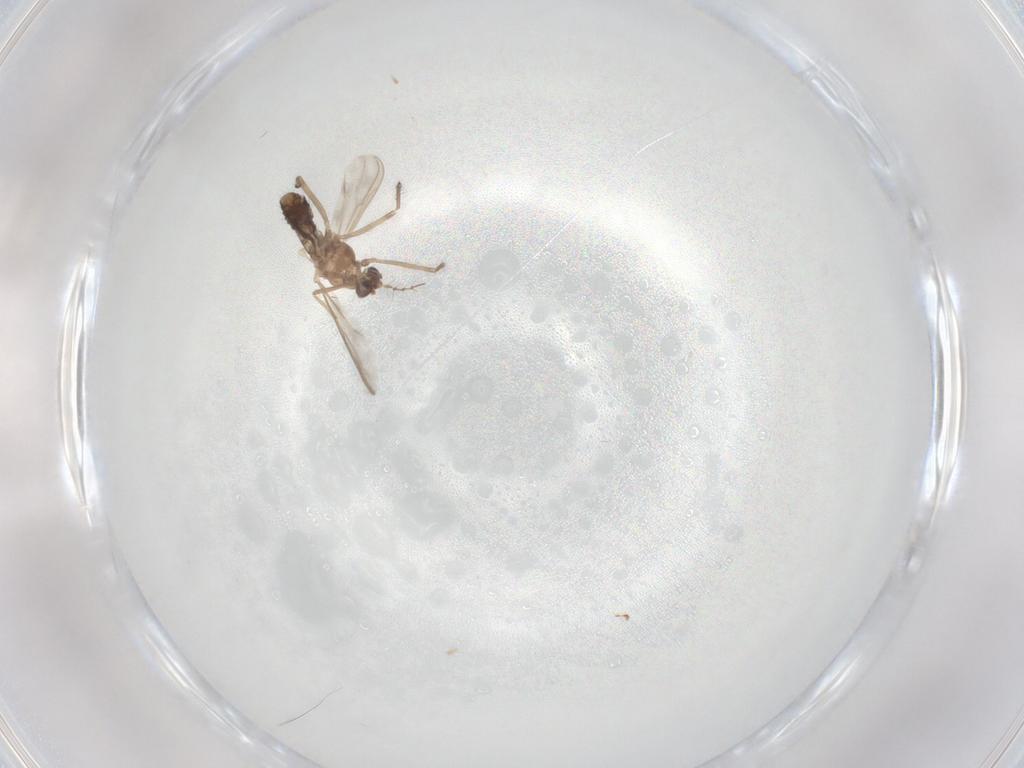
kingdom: Animalia
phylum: Arthropoda
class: Insecta
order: Diptera
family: Chironomidae
